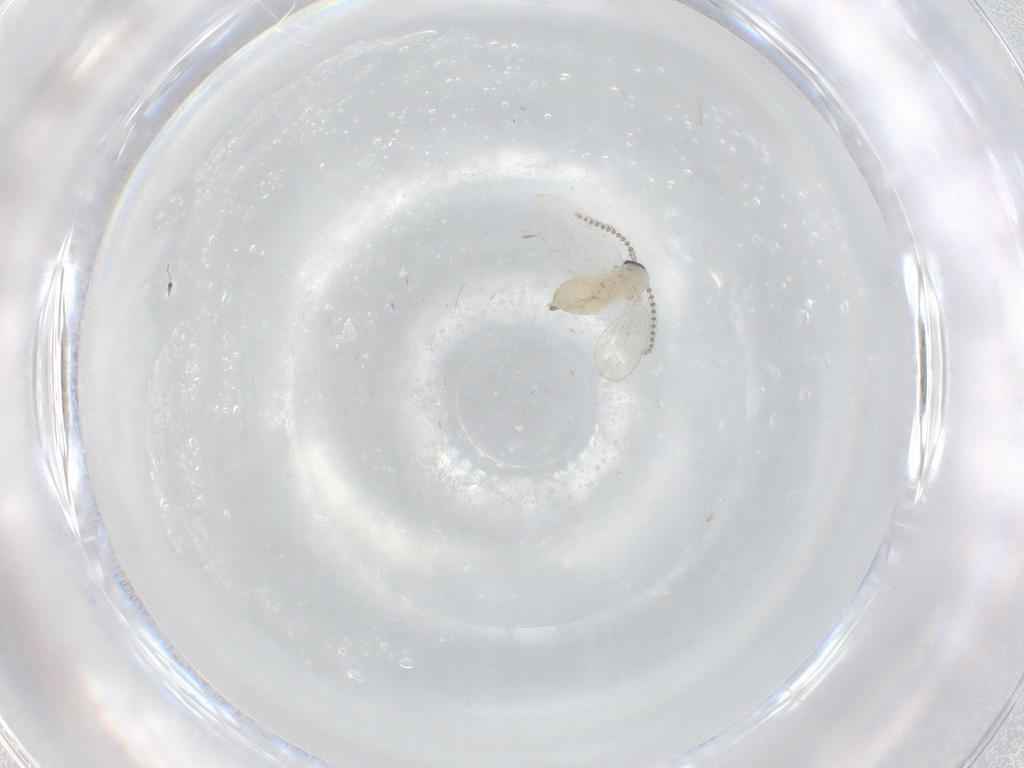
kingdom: Animalia
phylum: Arthropoda
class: Insecta
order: Diptera
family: Psychodidae
